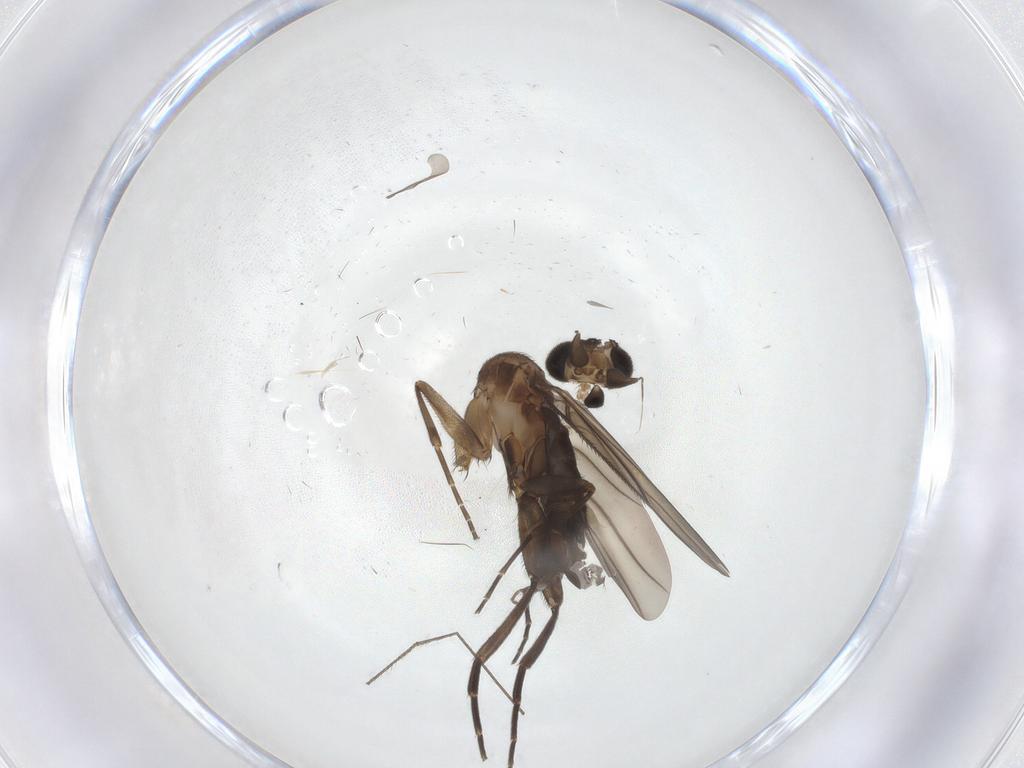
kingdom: Animalia
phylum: Arthropoda
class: Insecta
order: Diptera
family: Phoridae
